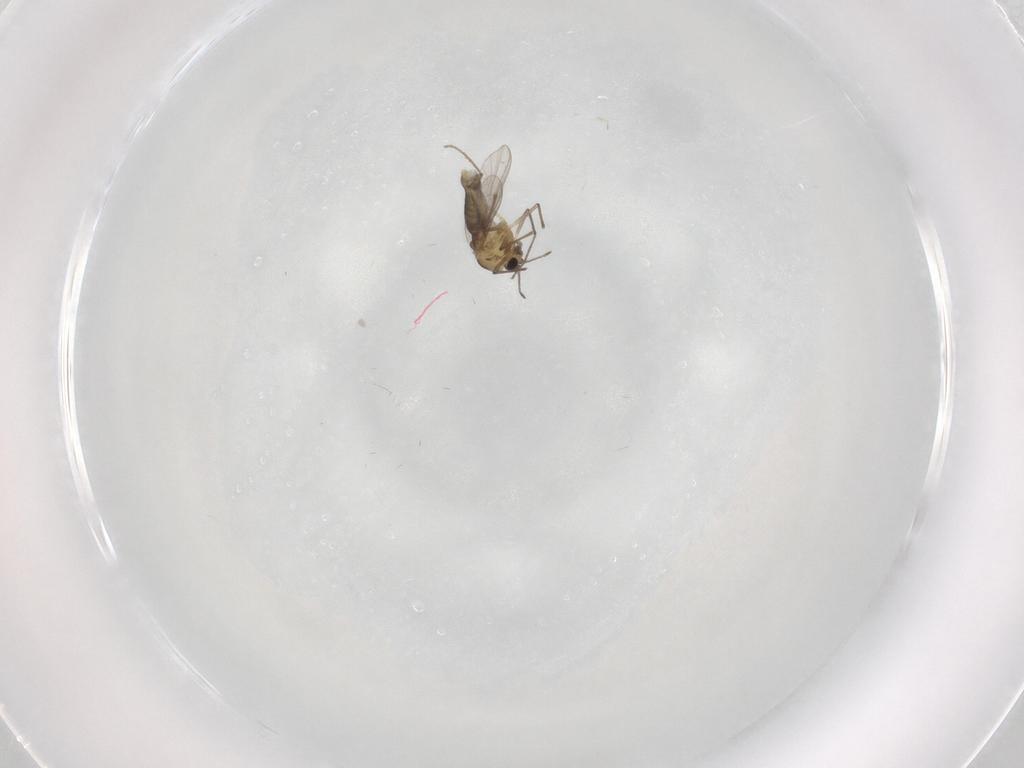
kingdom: Animalia
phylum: Arthropoda
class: Insecta
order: Diptera
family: Chironomidae
